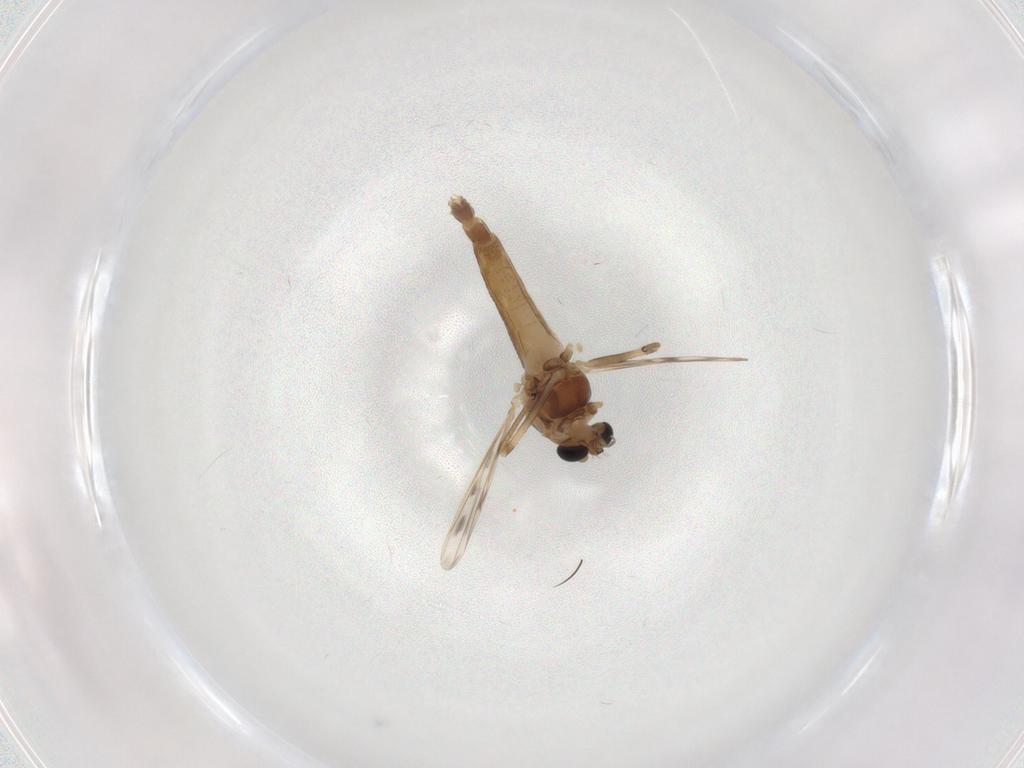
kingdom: Animalia
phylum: Arthropoda
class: Insecta
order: Diptera
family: Chironomidae
